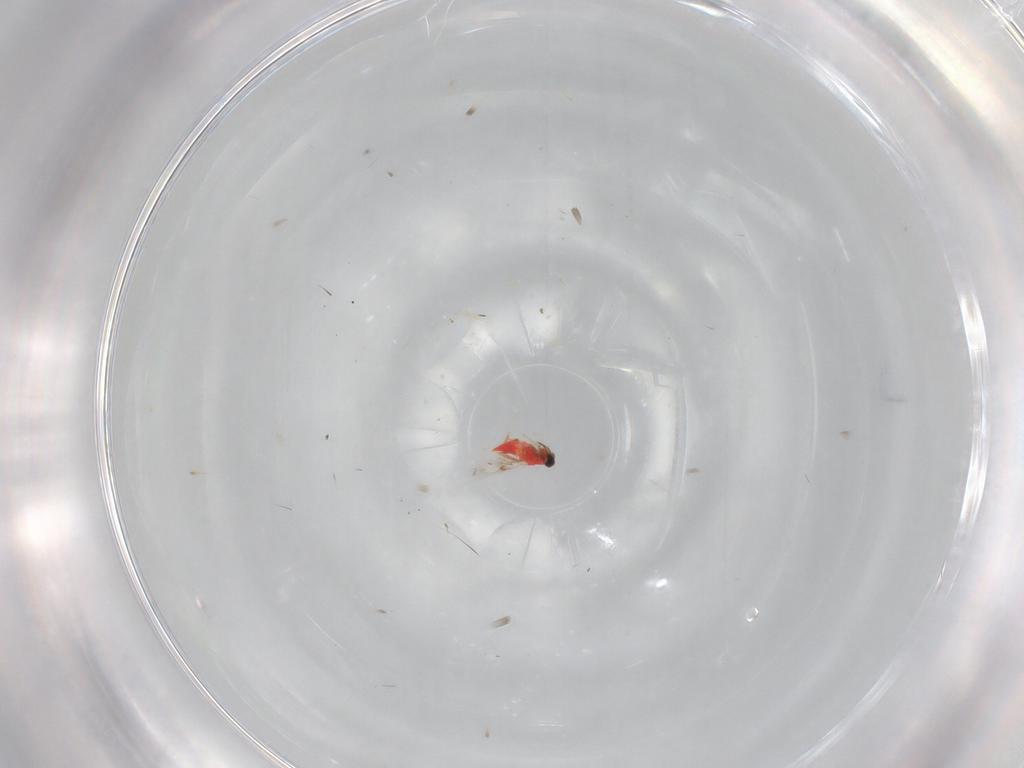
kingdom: Animalia
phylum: Arthropoda
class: Insecta
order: Hymenoptera
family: Trichogrammatidae
